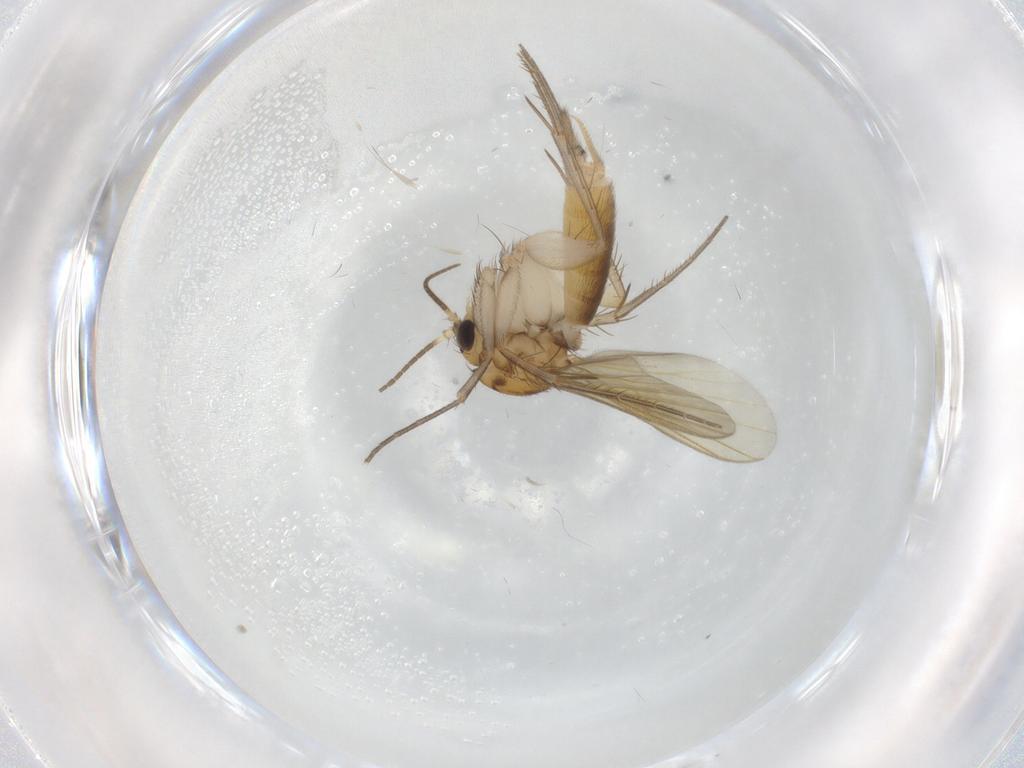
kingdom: Animalia
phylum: Arthropoda
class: Insecta
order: Diptera
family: Mycetophilidae
